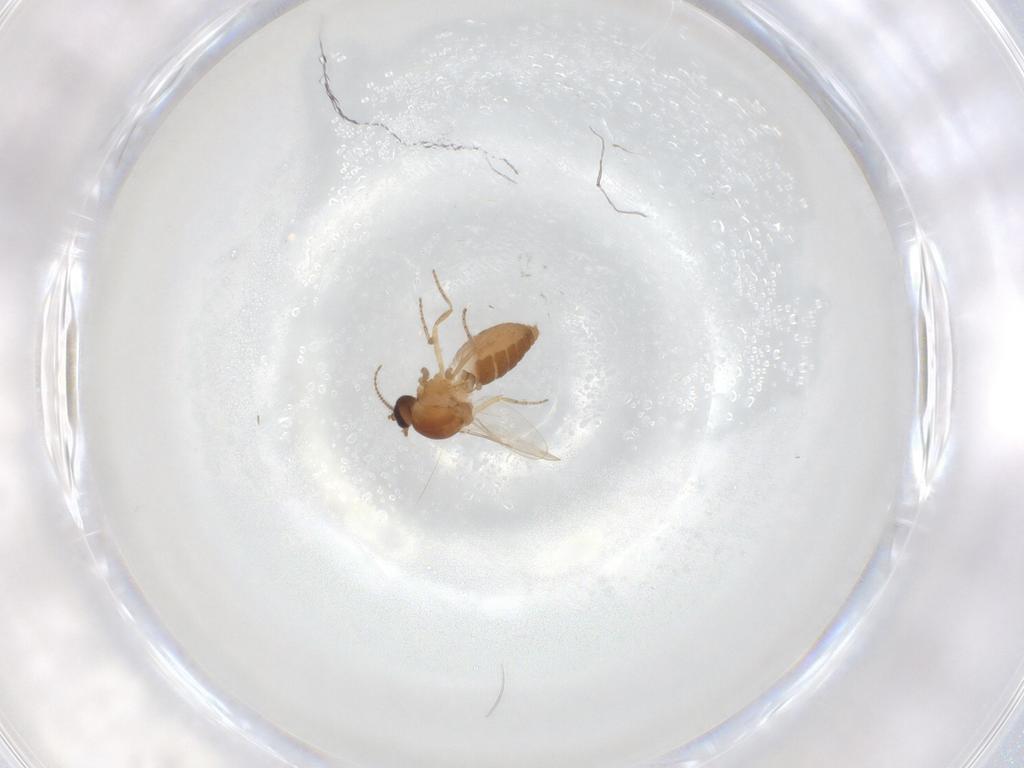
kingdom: Animalia
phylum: Arthropoda
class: Insecta
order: Diptera
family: Ceratopogonidae
